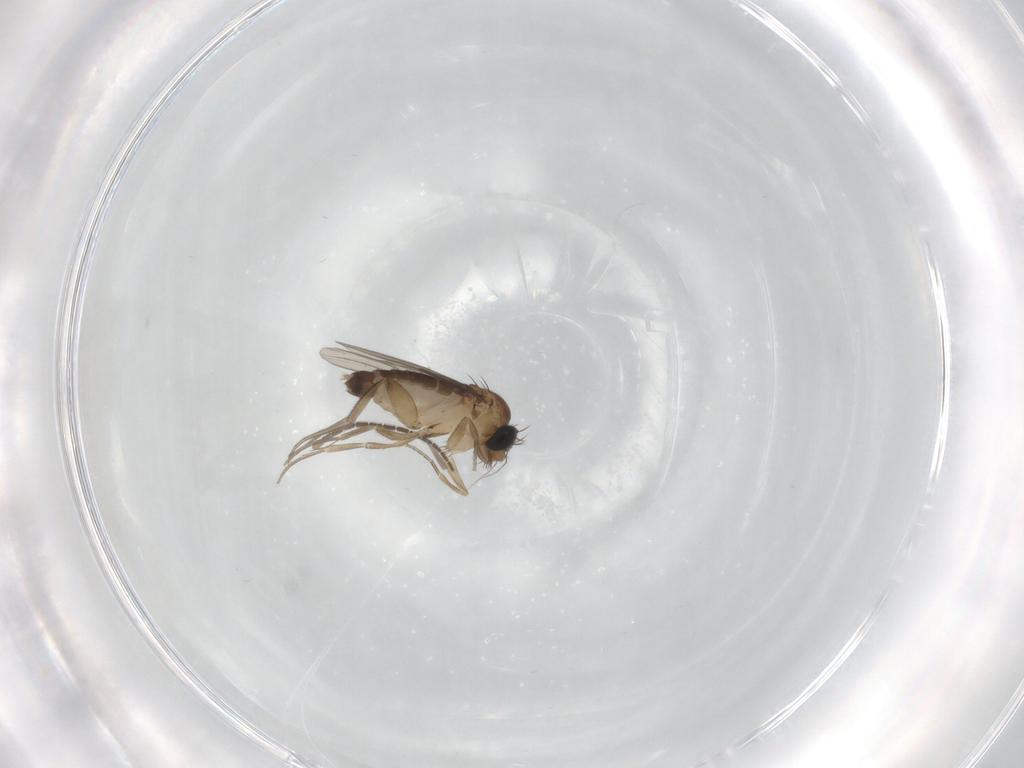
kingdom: Animalia
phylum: Arthropoda
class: Insecta
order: Diptera
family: Phoridae
